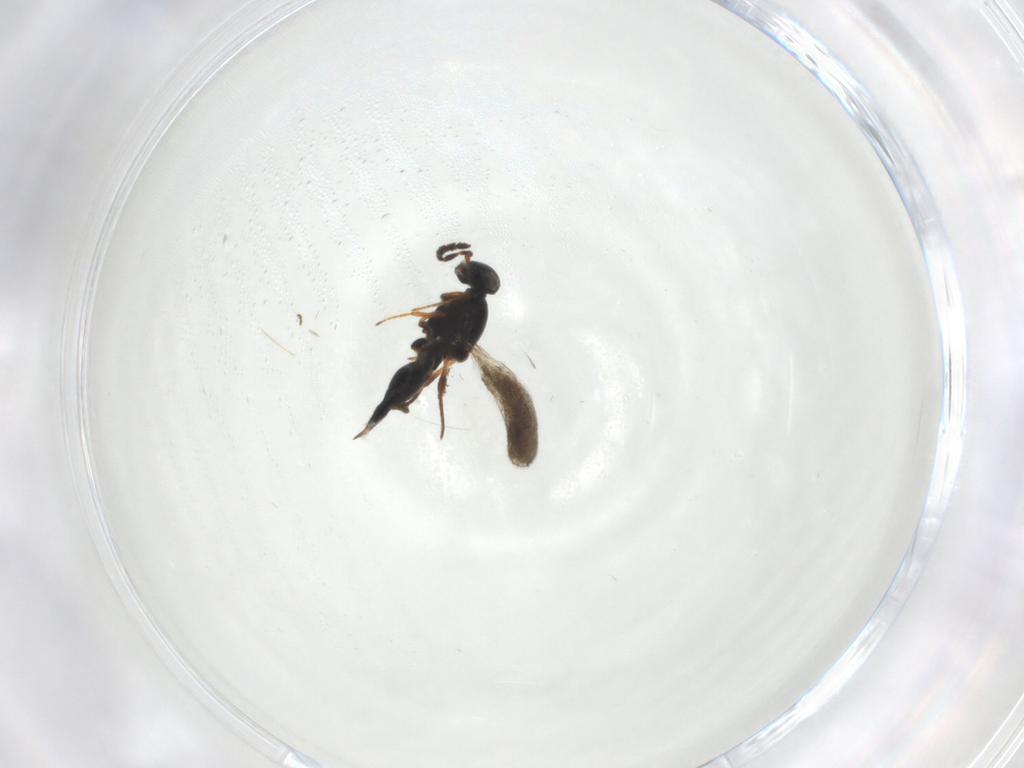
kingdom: Animalia
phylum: Arthropoda
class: Insecta
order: Hymenoptera
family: Platygastridae
